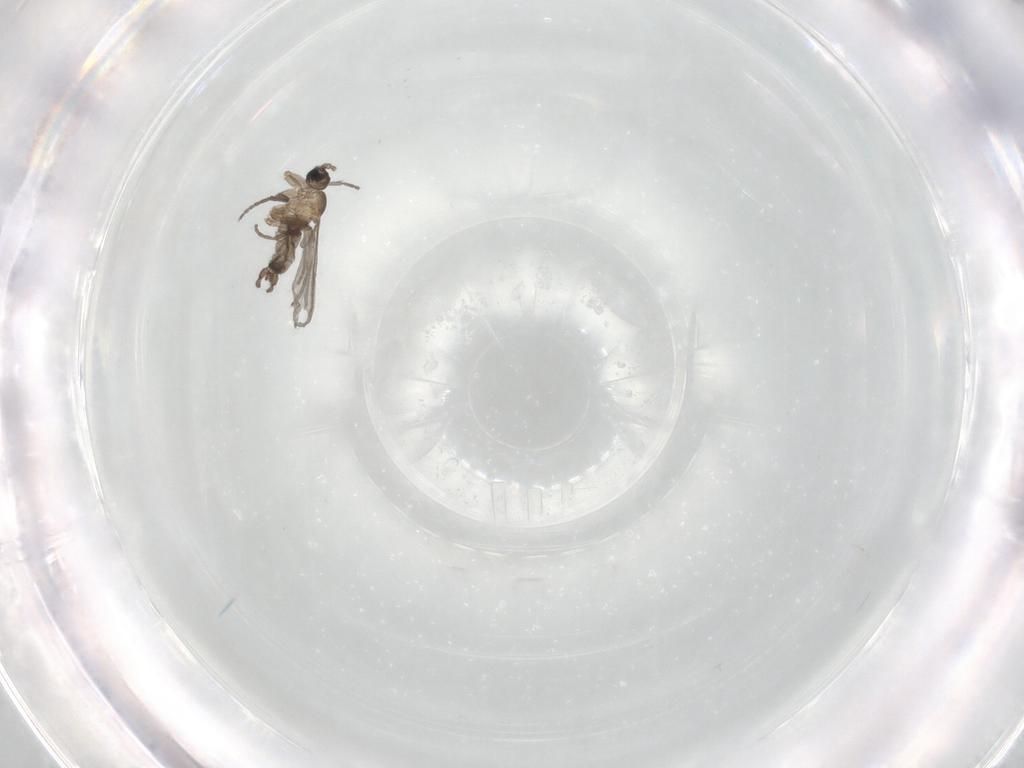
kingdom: Animalia
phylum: Arthropoda
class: Insecta
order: Diptera
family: Sciaridae
